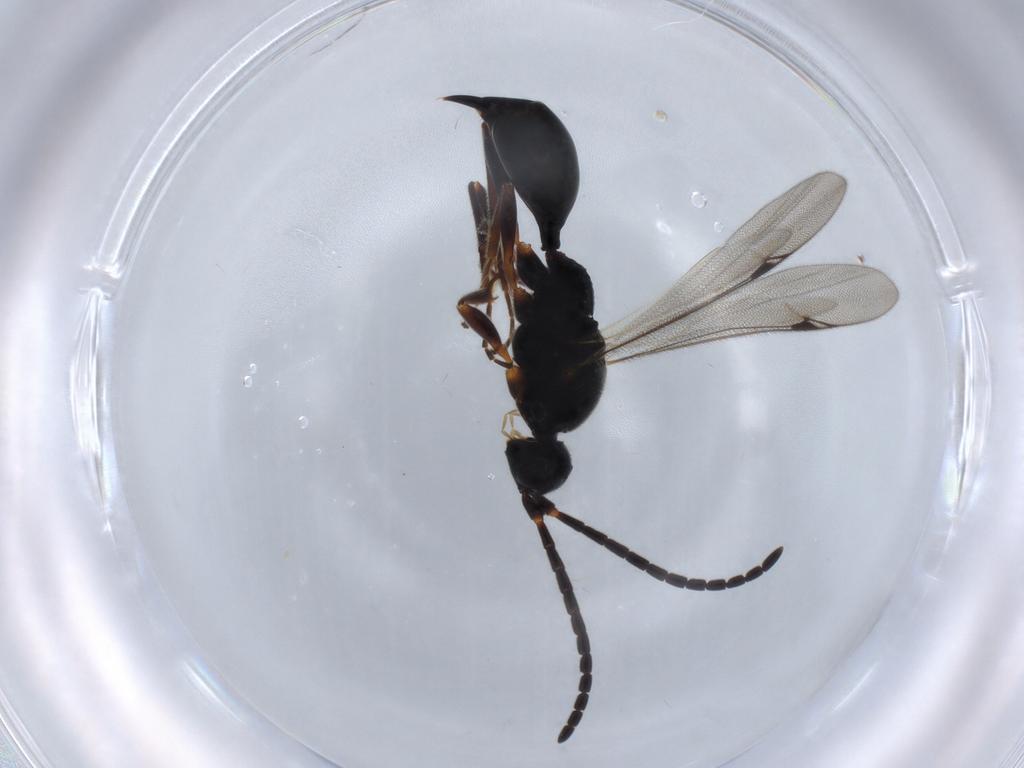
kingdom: Animalia
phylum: Arthropoda
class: Insecta
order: Hymenoptera
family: Proctotrupidae
